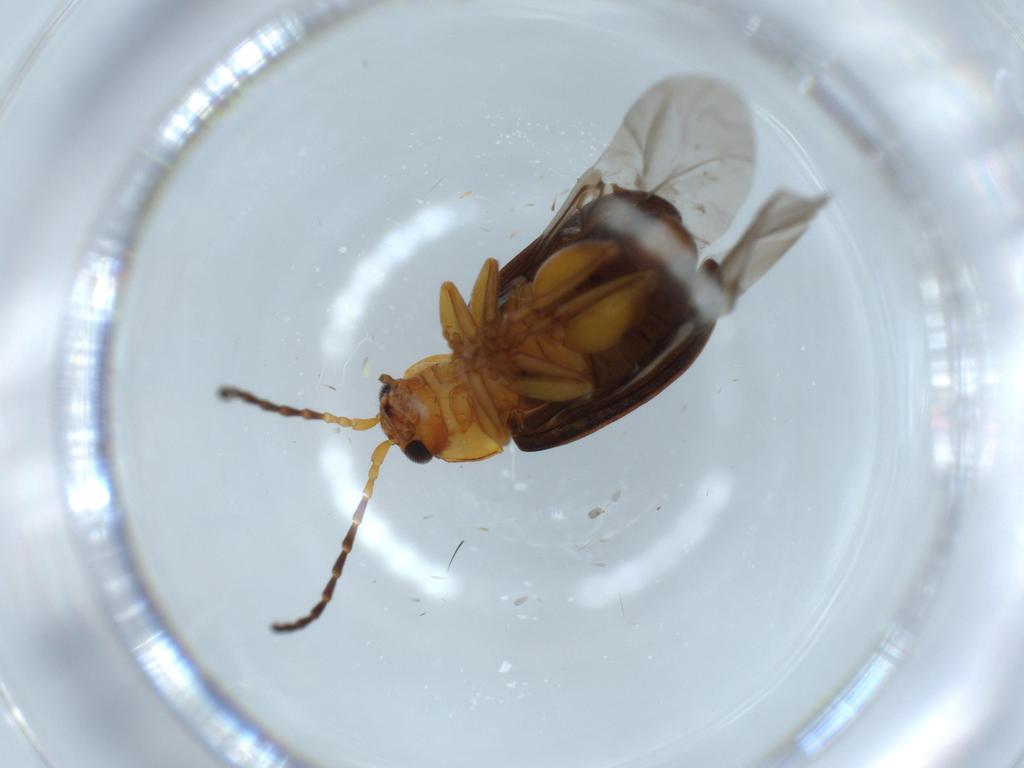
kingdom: Animalia
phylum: Arthropoda
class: Insecta
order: Coleoptera
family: Chrysomelidae
